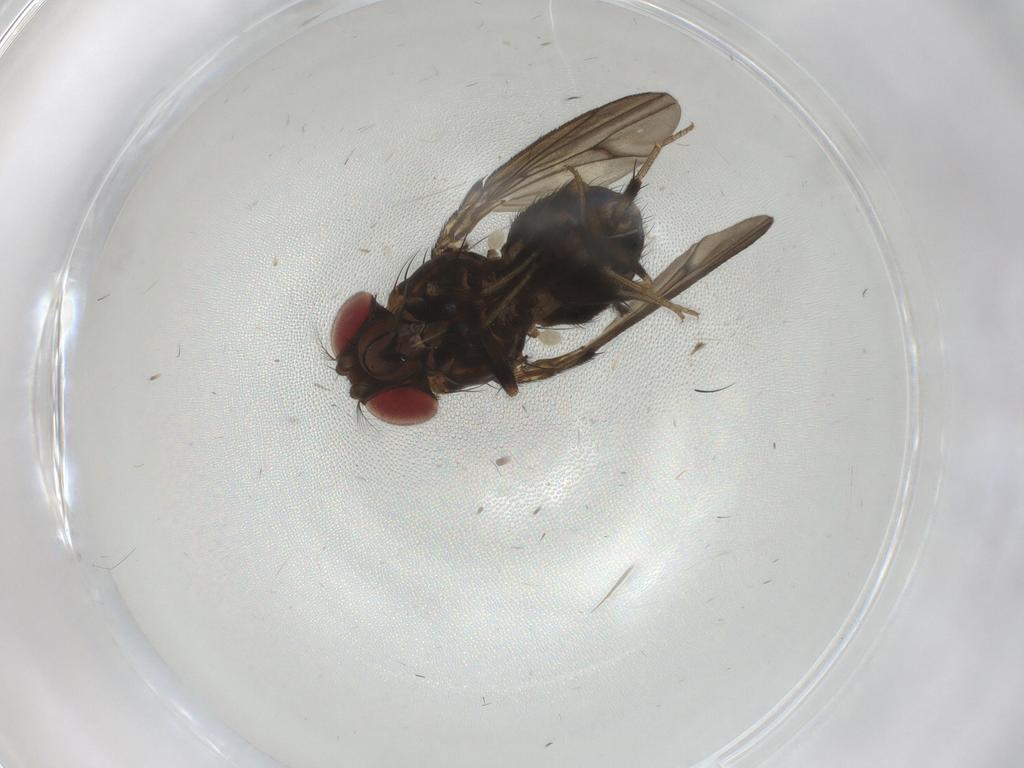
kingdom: Animalia
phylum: Arthropoda
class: Insecta
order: Diptera
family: Drosophilidae
